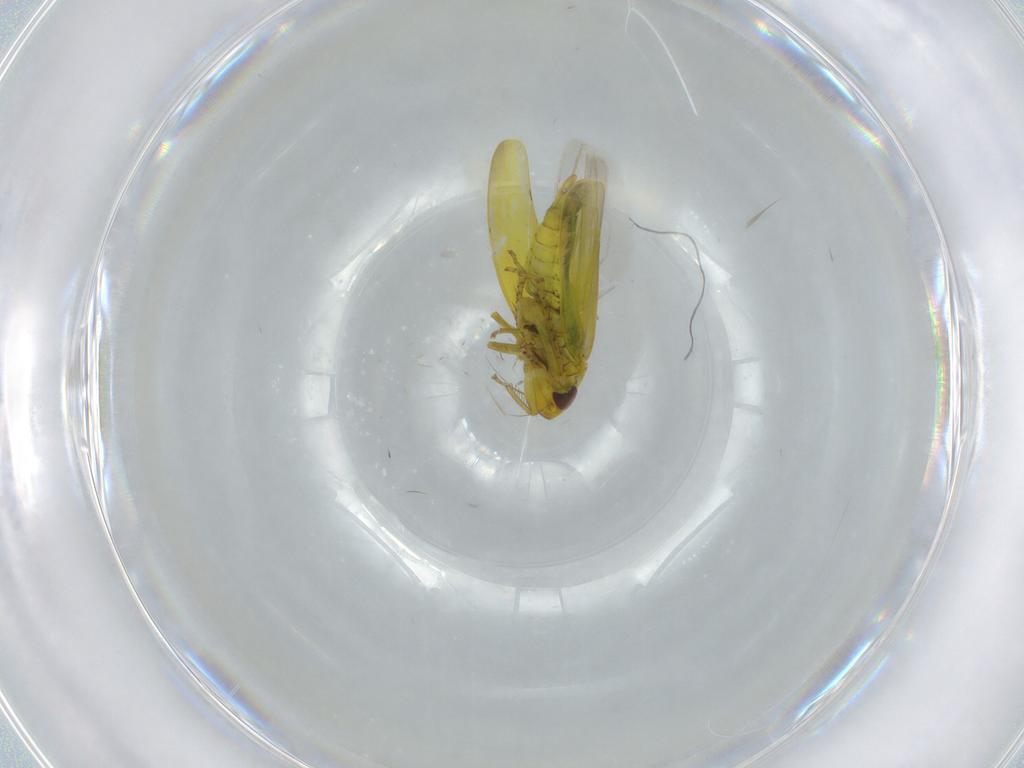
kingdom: Animalia
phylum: Arthropoda
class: Insecta
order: Hemiptera
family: Cicadellidae
